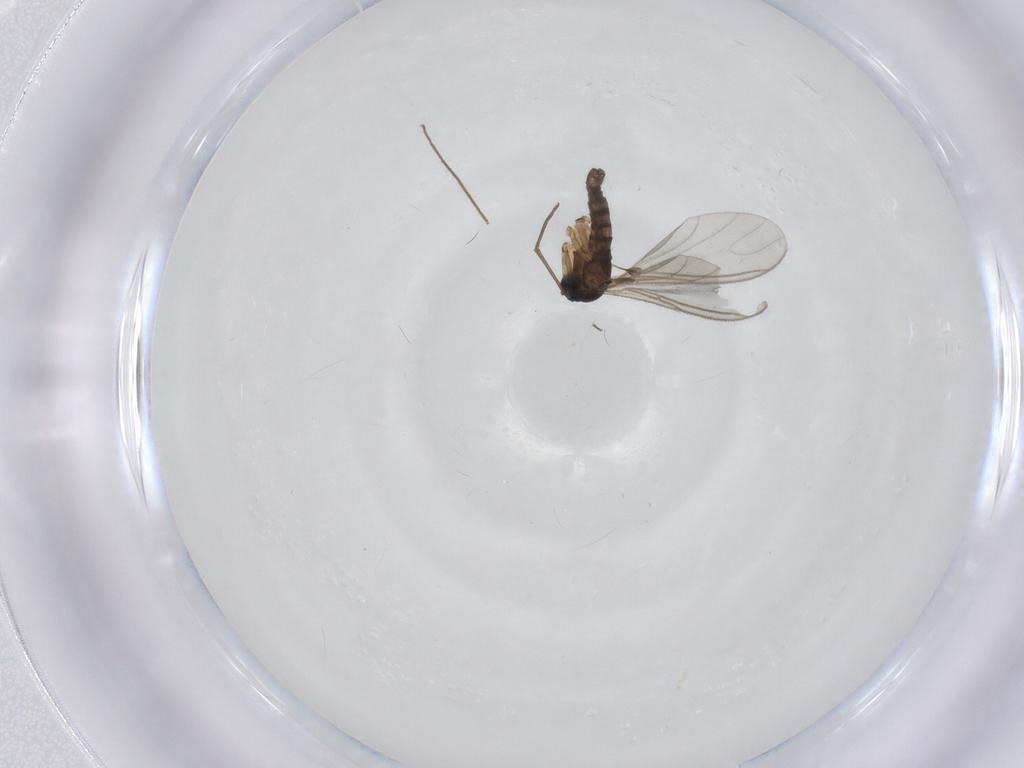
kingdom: Animalia
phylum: Arthropoda
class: Insecta
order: Diptera
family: Chironomidae
